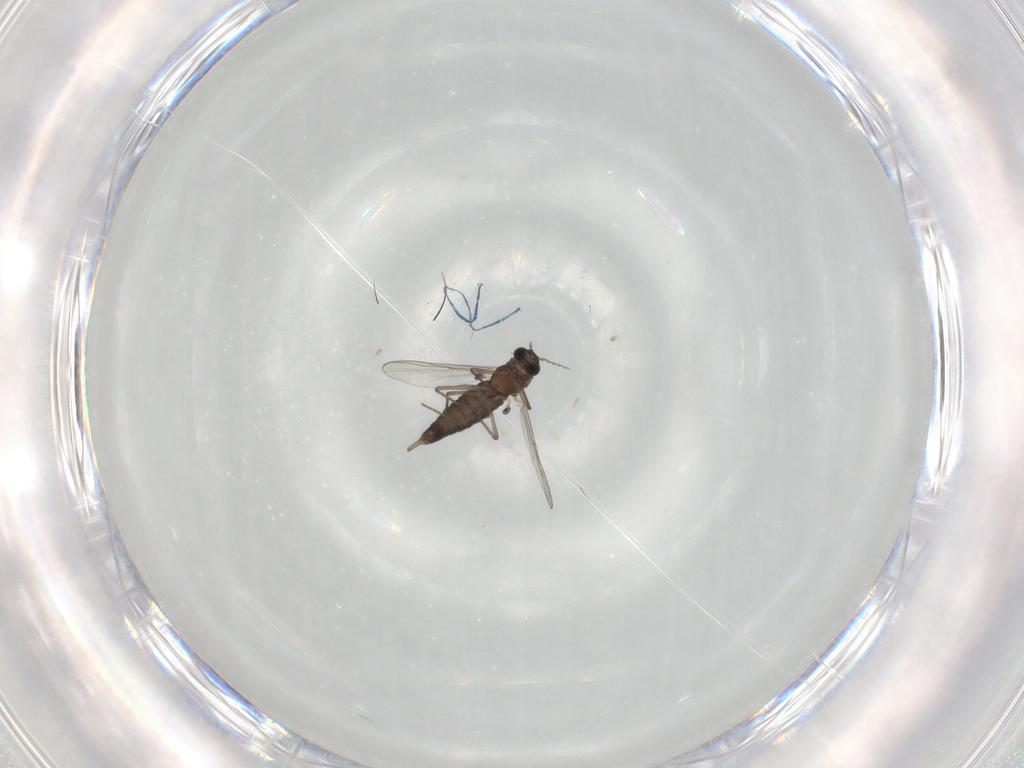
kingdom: Animalia
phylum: Arthropoda
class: Insecta
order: Diptera
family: Chironomidae
